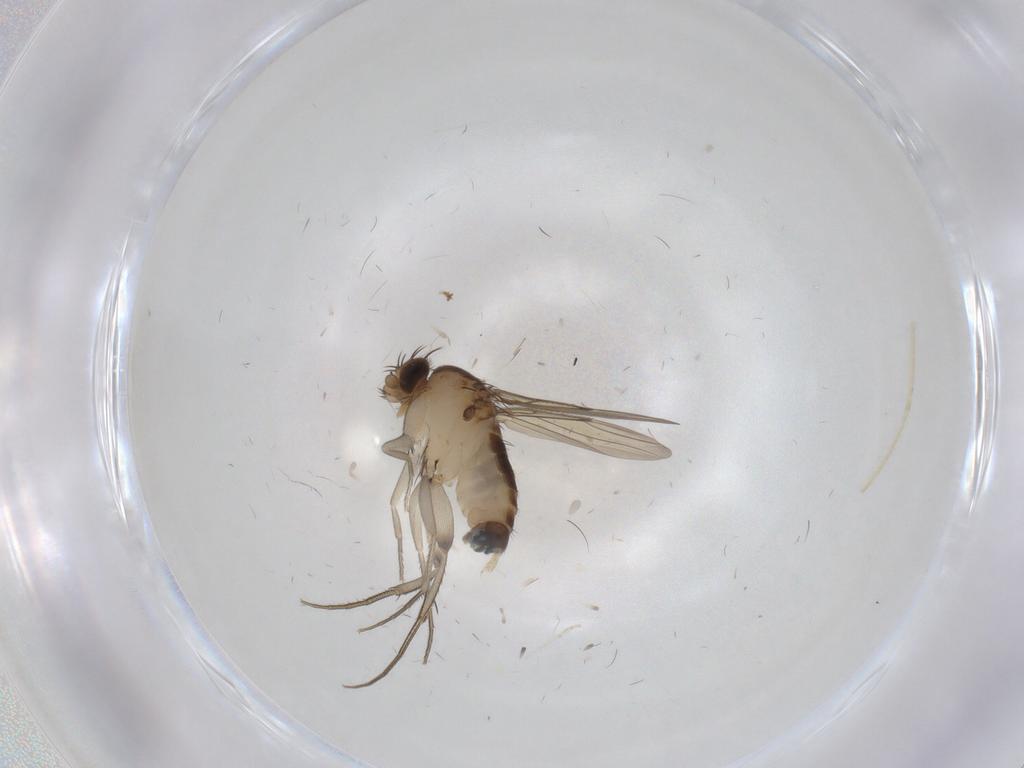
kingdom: Animalia
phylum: Arthropoda
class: Insecta
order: Diptera
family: Phoridae
